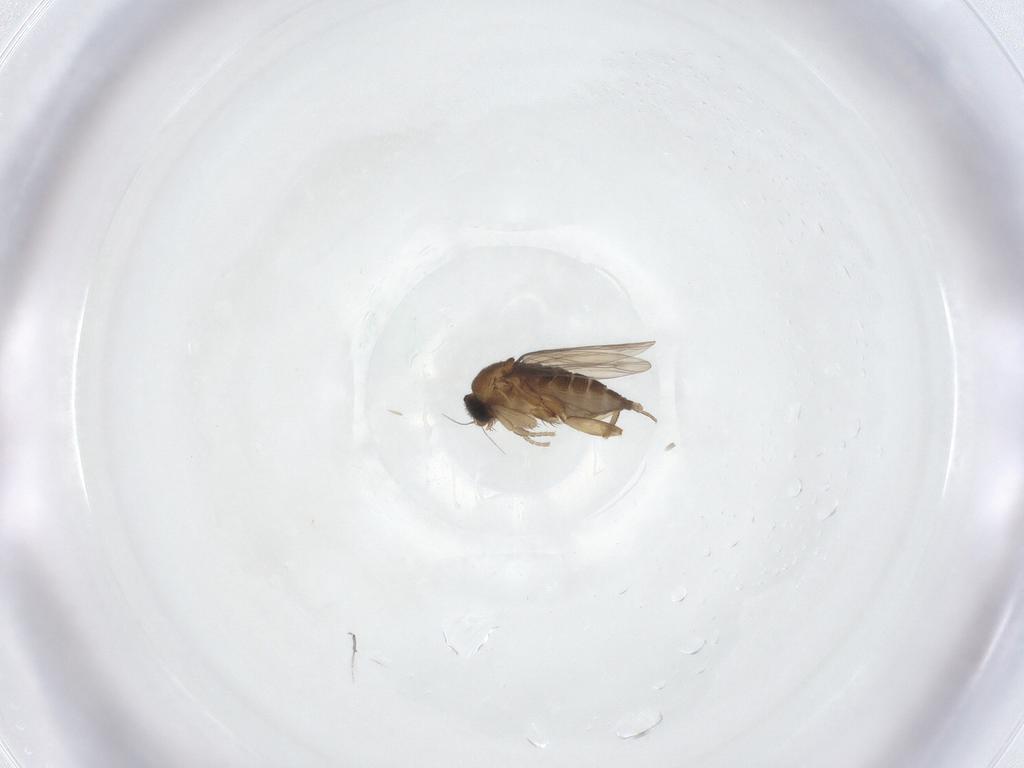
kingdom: Animalia
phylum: Arthropoda
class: Insecta
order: Diptera
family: Phoridae
